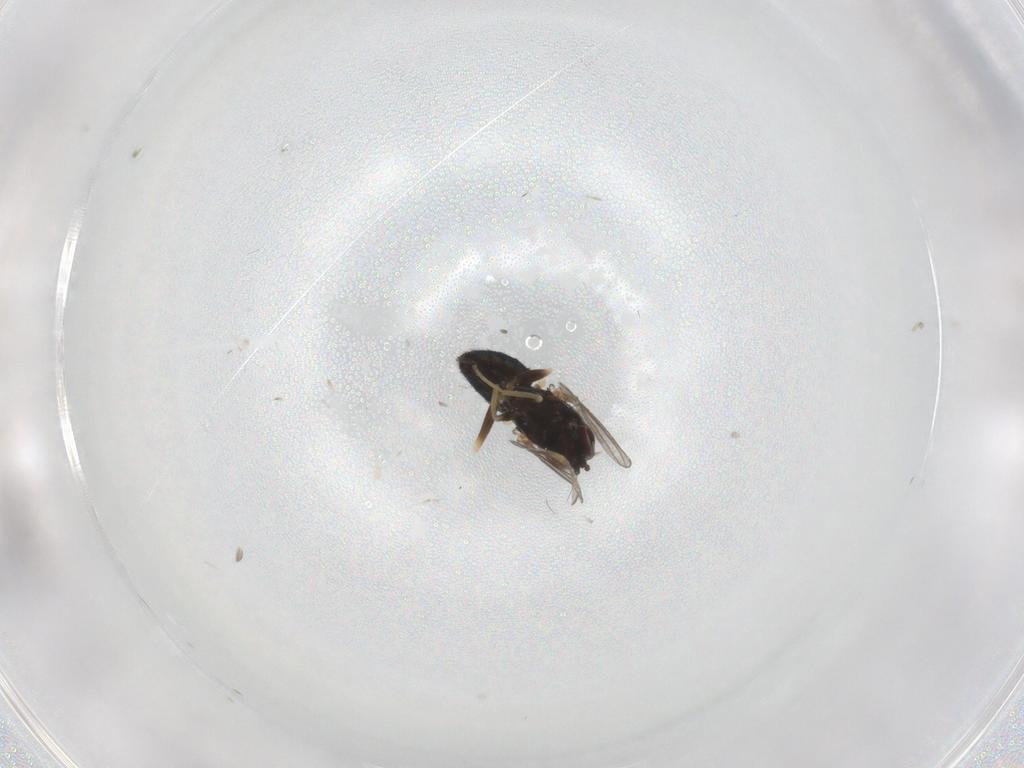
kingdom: Animalia
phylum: Arthropoda
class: Insecta
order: Diptera
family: Dolichopodidae
